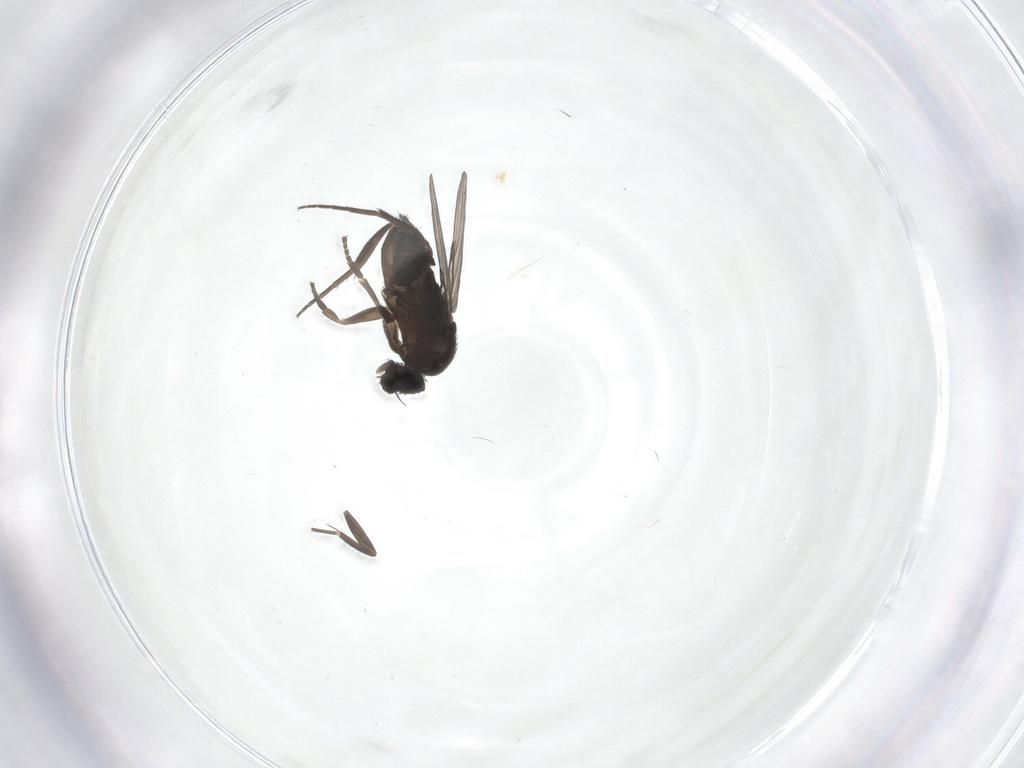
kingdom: Animalia
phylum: Arthropoda
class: Insecta
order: Diptera
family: Phoridae
